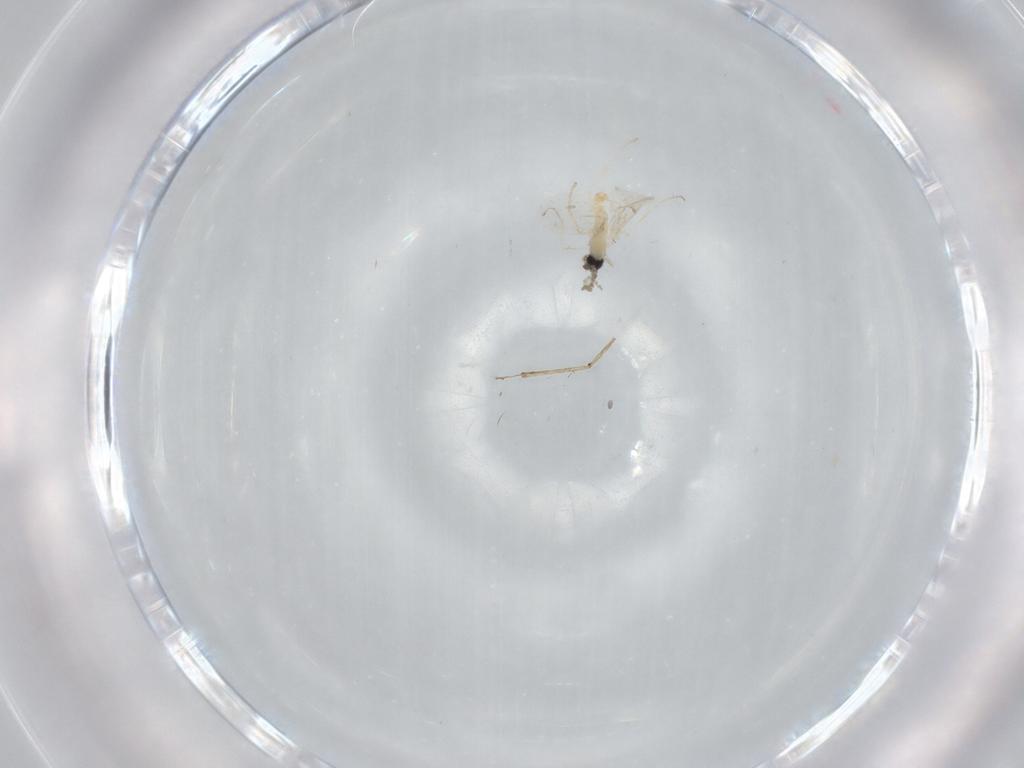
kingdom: Animalia
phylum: Arthropoda
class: Insecta
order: Diptera
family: Cecidomyiidae
